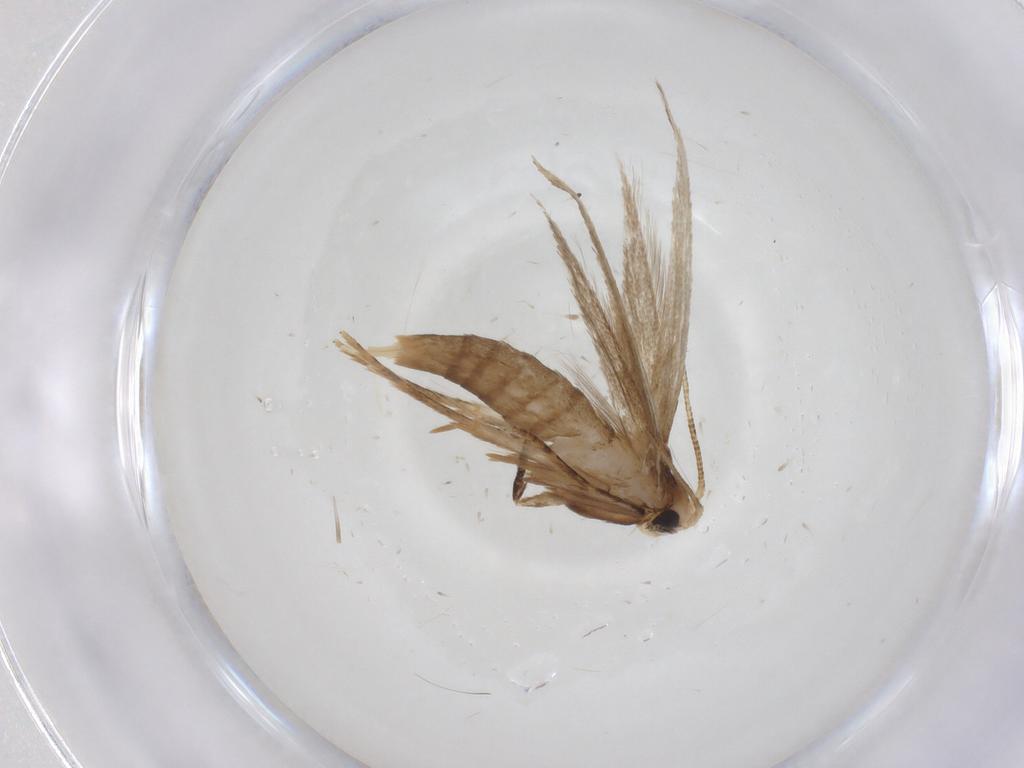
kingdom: Animalia
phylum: Arthropoda
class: Insecta
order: Lepidoptera
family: Tineidae
